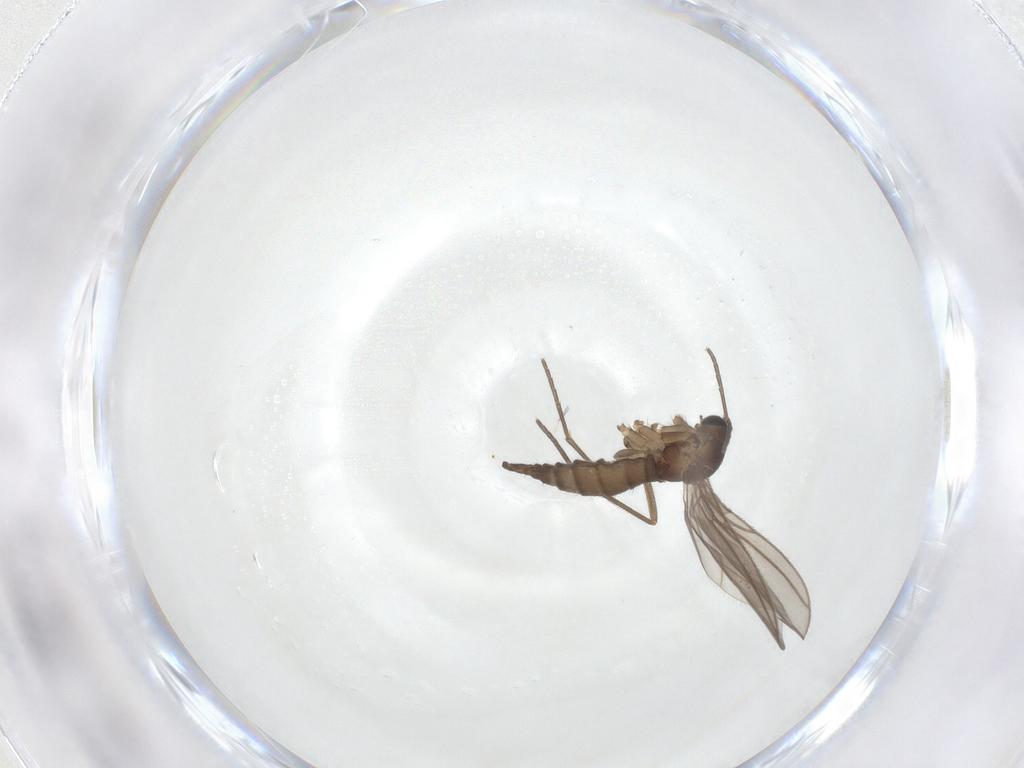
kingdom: Animalia
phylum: Arthropoda
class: Insecta
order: Diptera
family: Sciaridae
